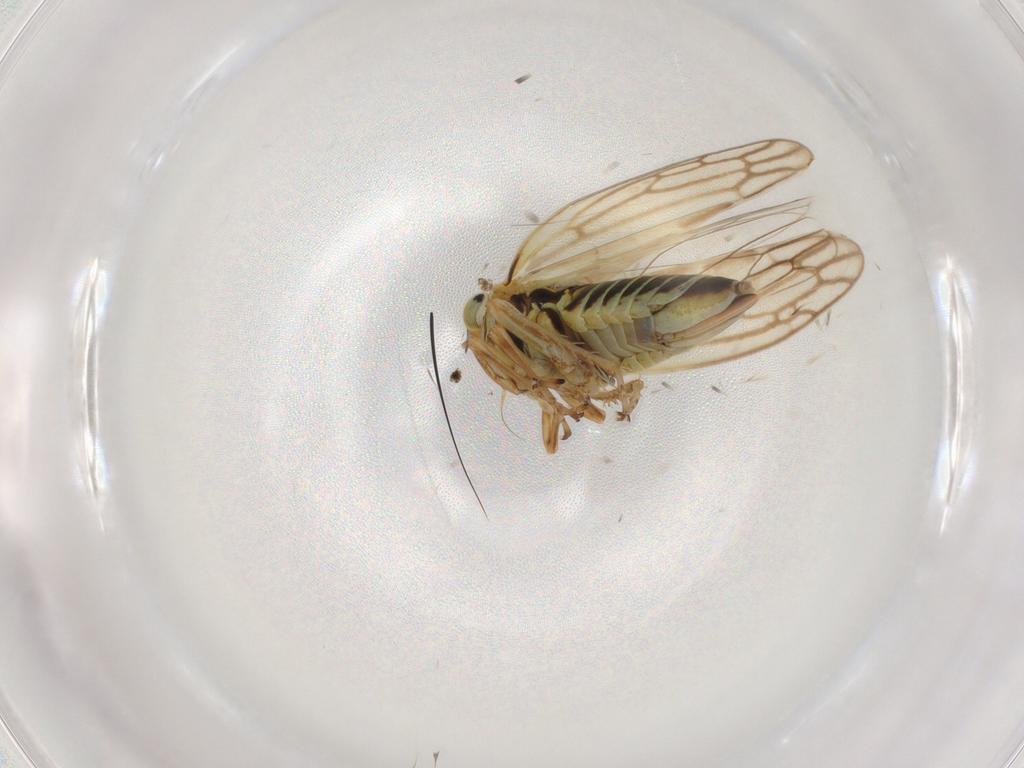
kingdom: Animalia
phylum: Arthropoda
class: Insecta
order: Hemiptera
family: Cicadellidae
